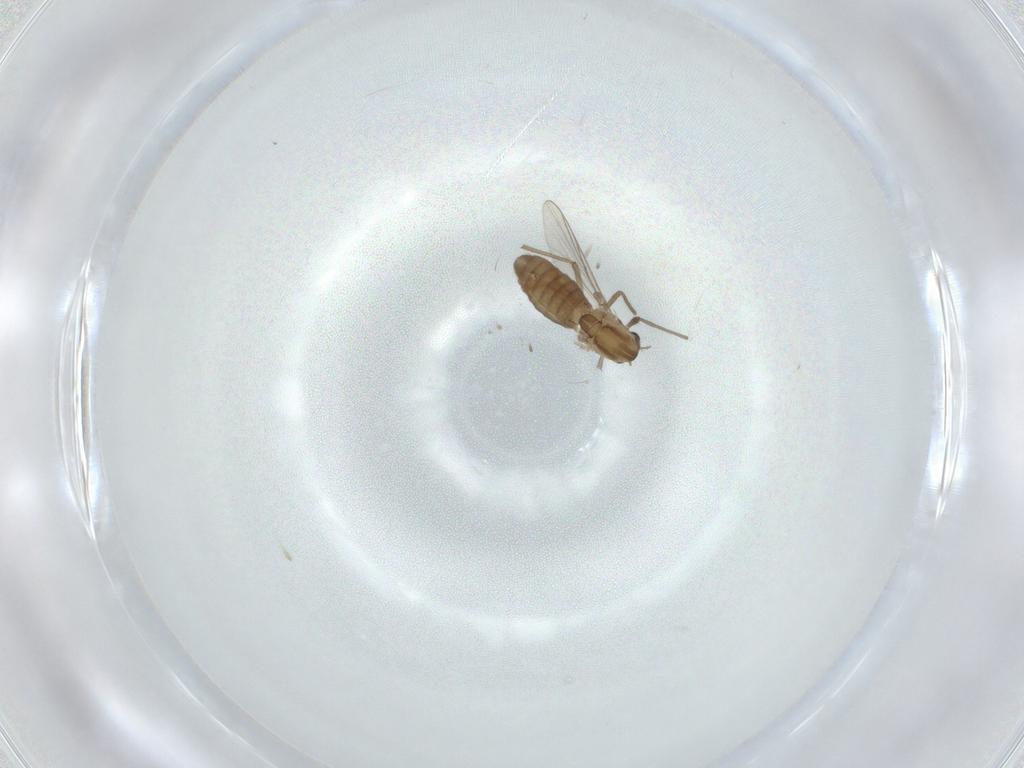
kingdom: Animalia
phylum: Arthropoda
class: Insecta
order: Diptera
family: Chironomidae
